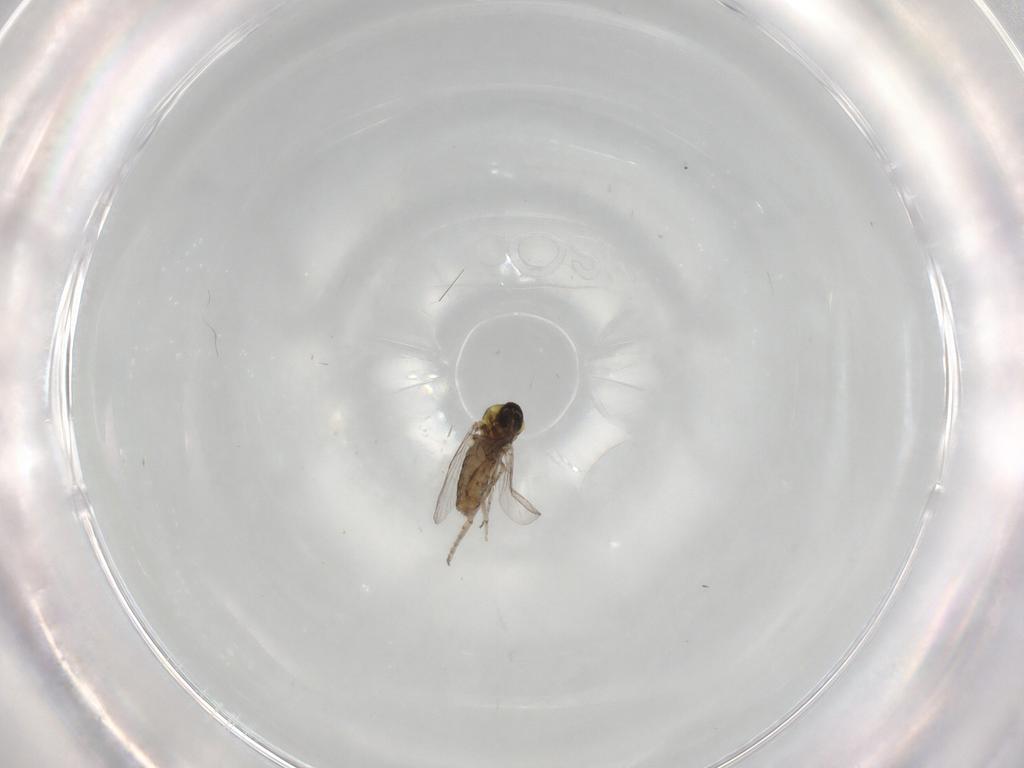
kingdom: Animalia
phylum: Arthropoda
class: Insecta
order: Diptera
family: Ceratopogonidae
